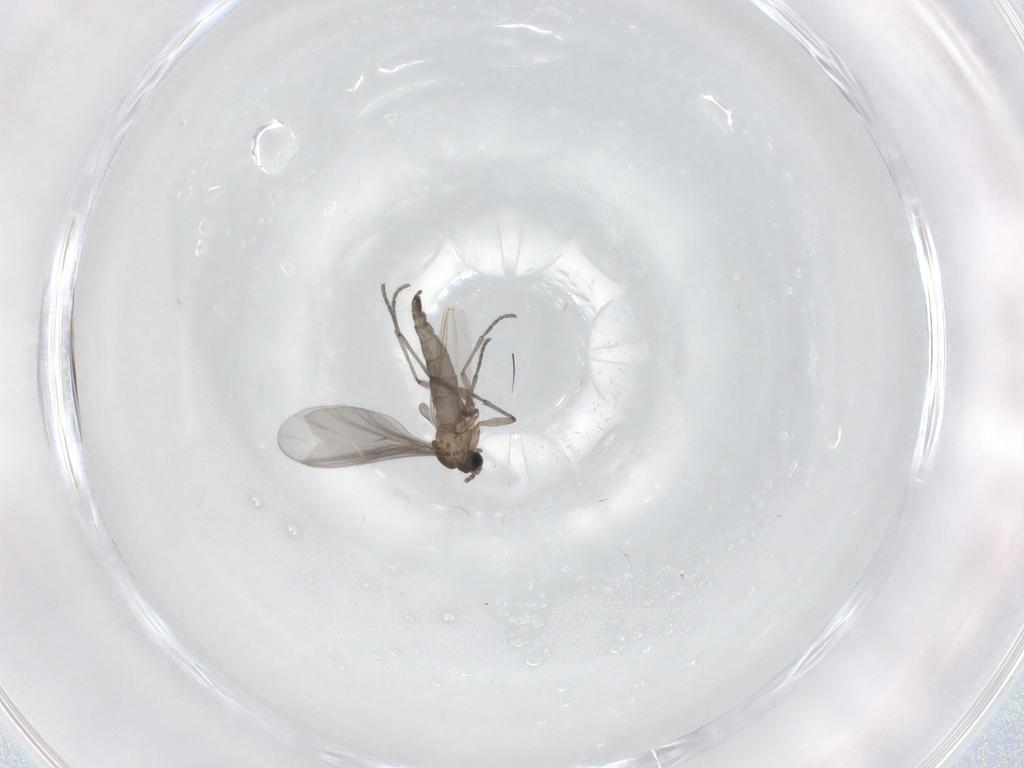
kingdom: Animalia
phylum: Arthropoda
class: Insecta
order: Diptera
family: Sciaridae
